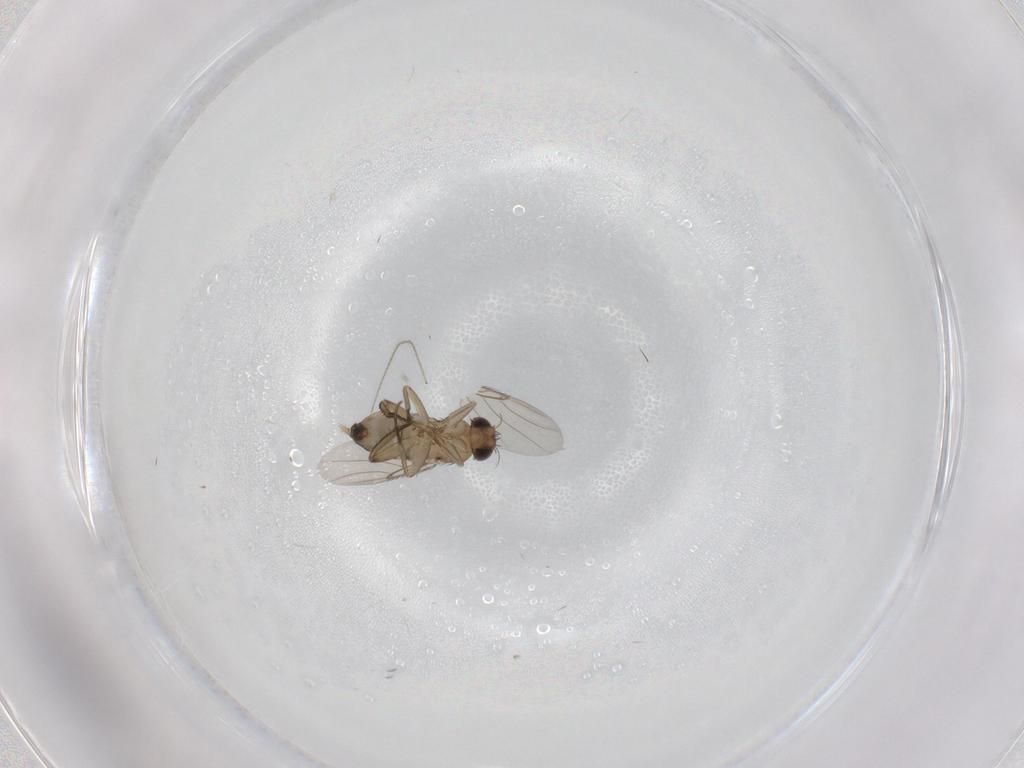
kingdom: Animalia
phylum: Arthropoda
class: Insecta
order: Diptera
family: Phoridae
